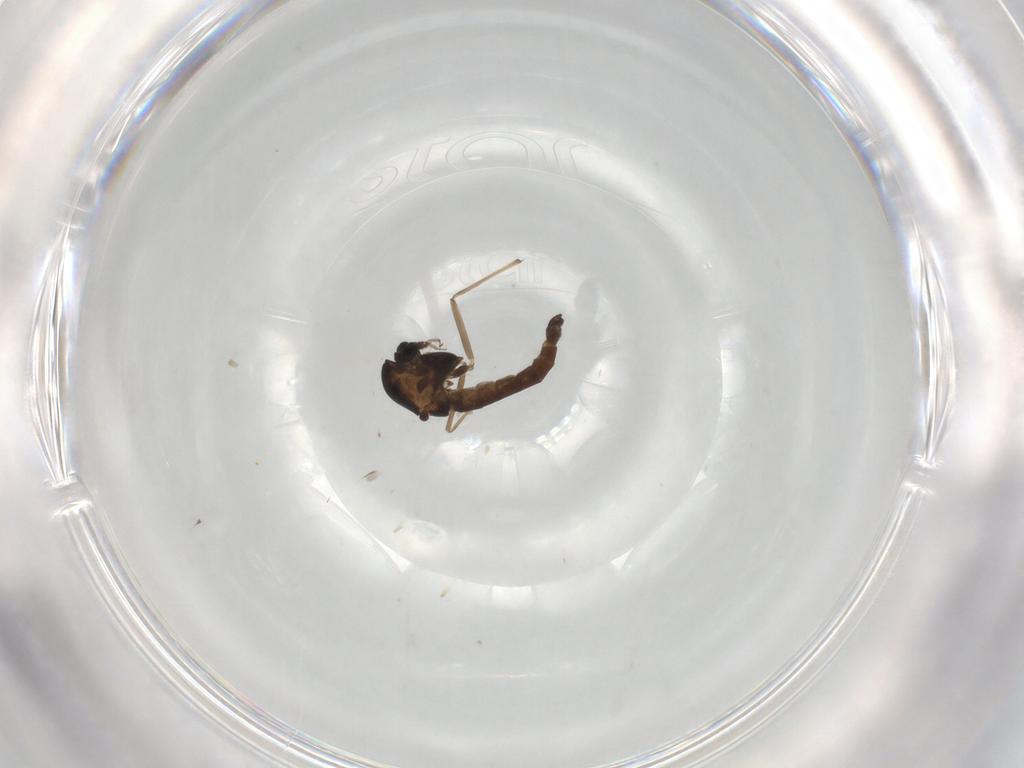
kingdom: Animalia
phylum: Arthropoda
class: Insecta
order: Diptera
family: Chironomidae
